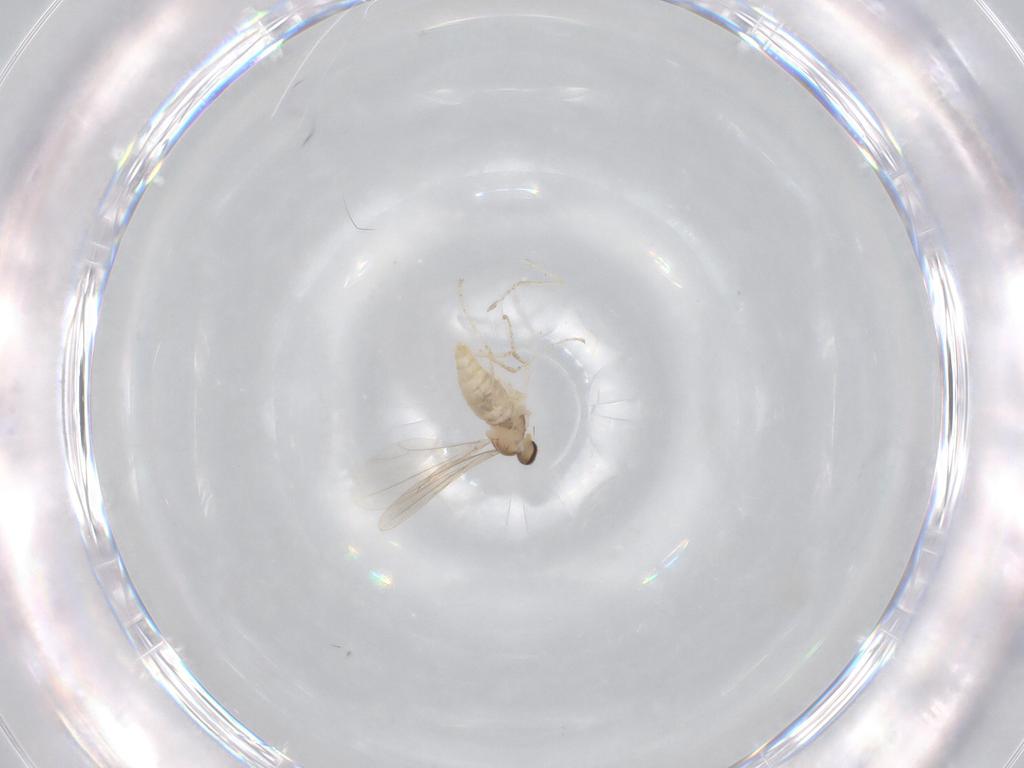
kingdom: Animalia
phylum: Arthropoda
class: Insecta
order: Diptera
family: Cecidomyiidae
